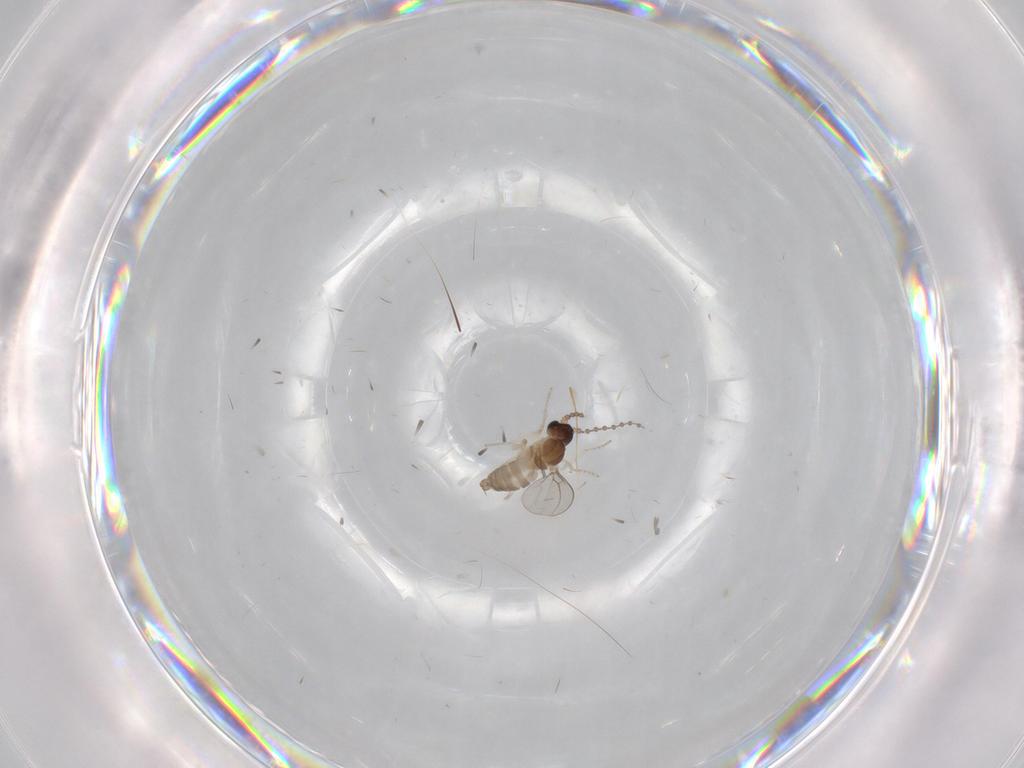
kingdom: Animalia
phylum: Arthropoda
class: Insecta
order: Diptera
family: Cecidomyiidae
